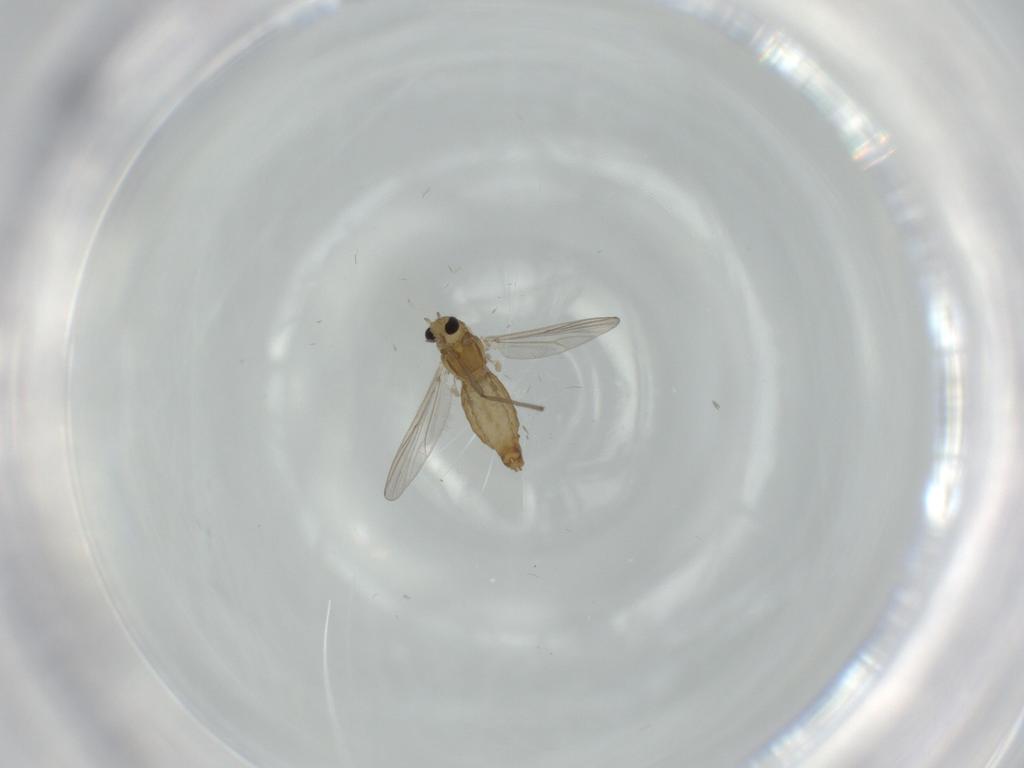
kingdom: Animalia
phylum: Arthropoda
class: Insecta
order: Diptera
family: Chironomidae
